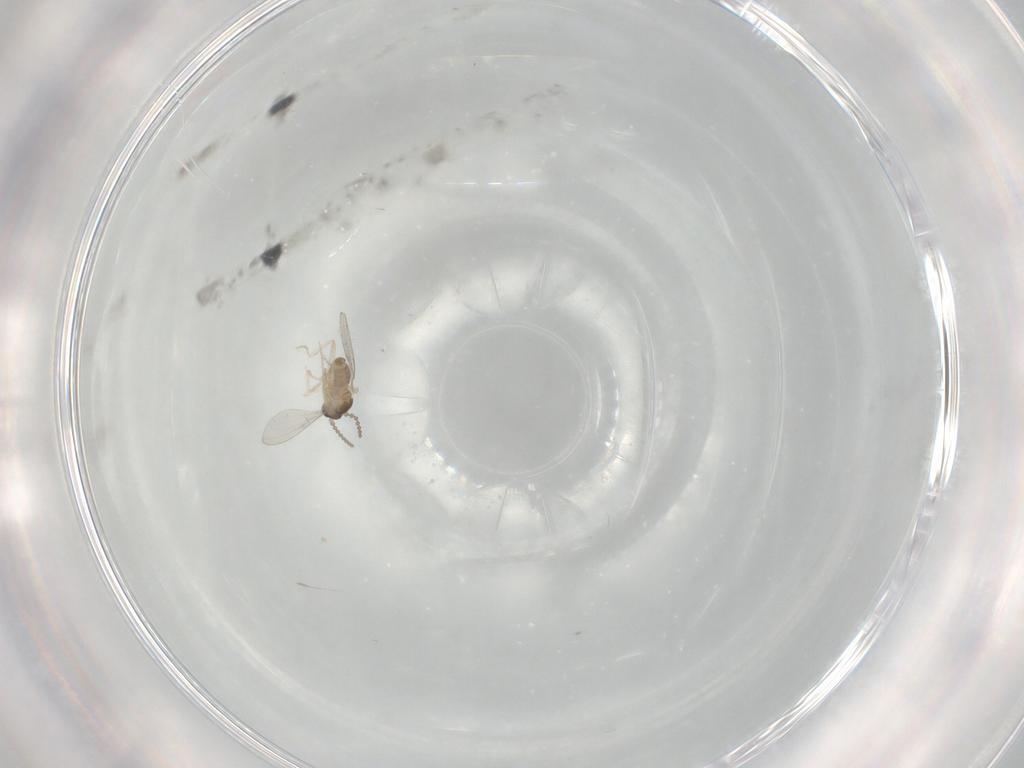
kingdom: Animalia
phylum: Arthropoda
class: Insecta
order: Diptera
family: Cecidomyiidae
